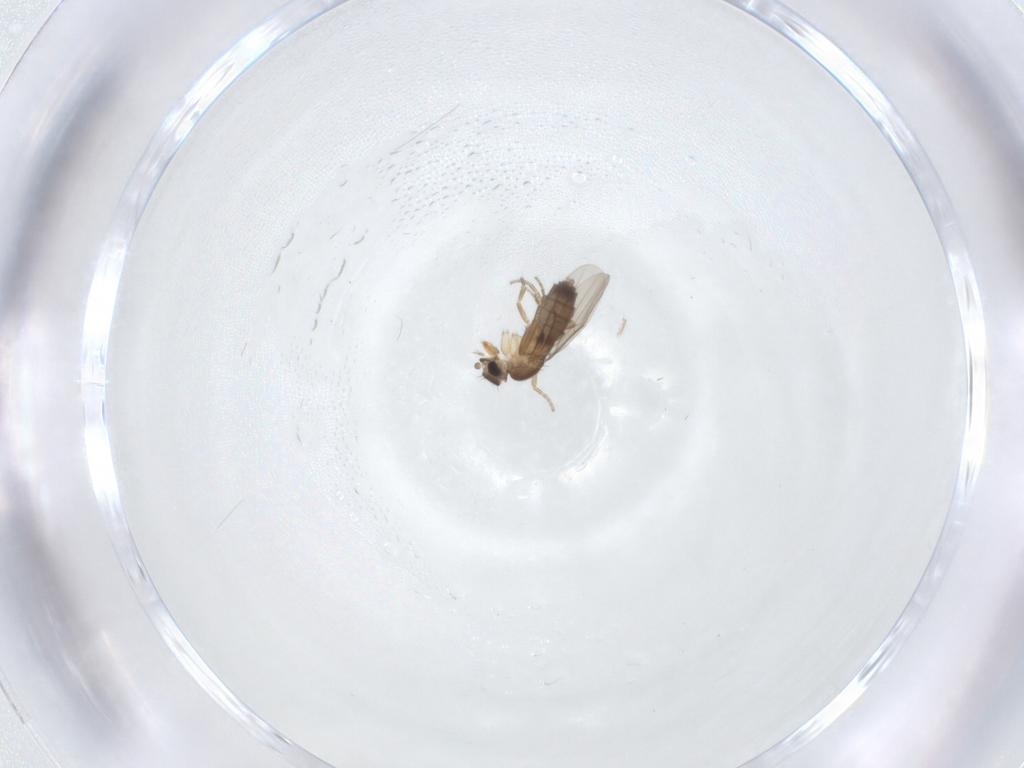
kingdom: Animalia
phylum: Arthropoda
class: Insecta
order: Diptera
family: Phoridae
